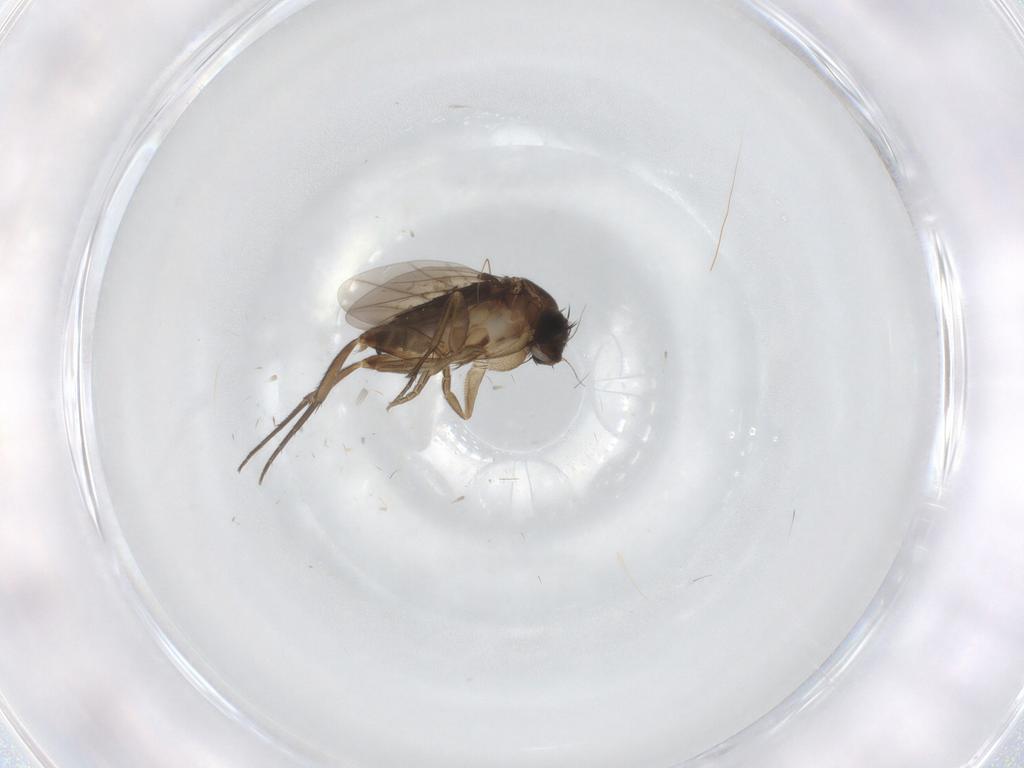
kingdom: Animalia
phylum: Arthropoda
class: Insecta
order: Diptera
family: Phoridae
